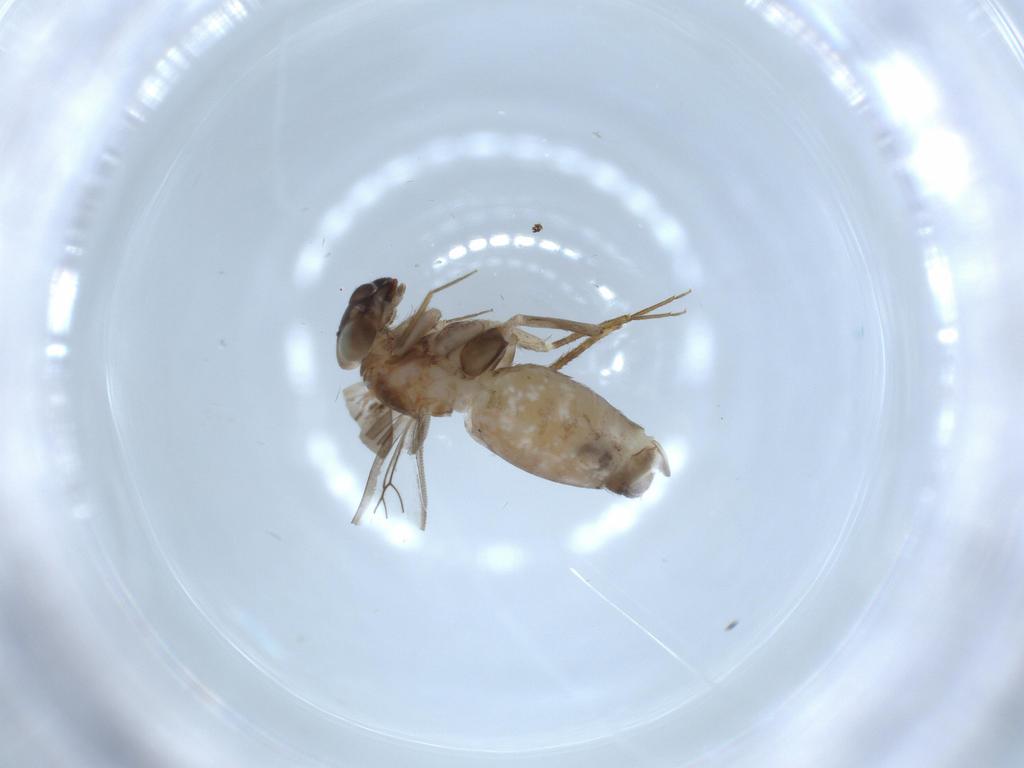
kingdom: Animalia
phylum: Arthropoda
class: Insecta
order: Psocodea
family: Lepidopsocidae
